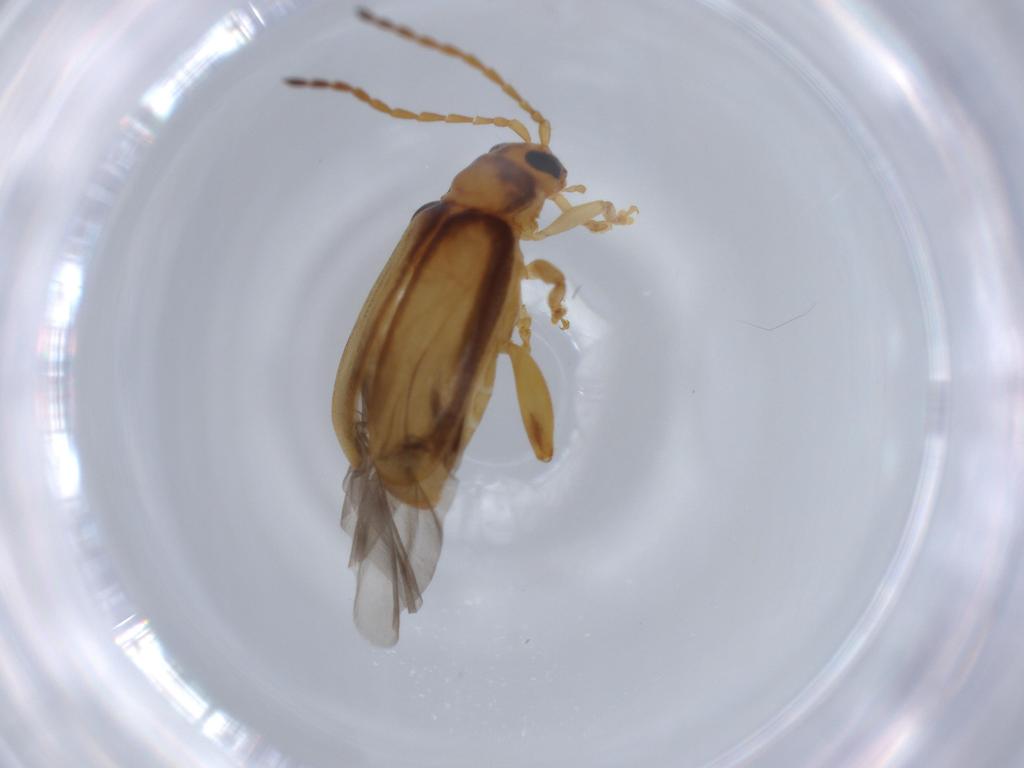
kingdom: Animalia
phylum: Arthropoda
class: Insecta
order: Coleoptera
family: Chrysomelidae
